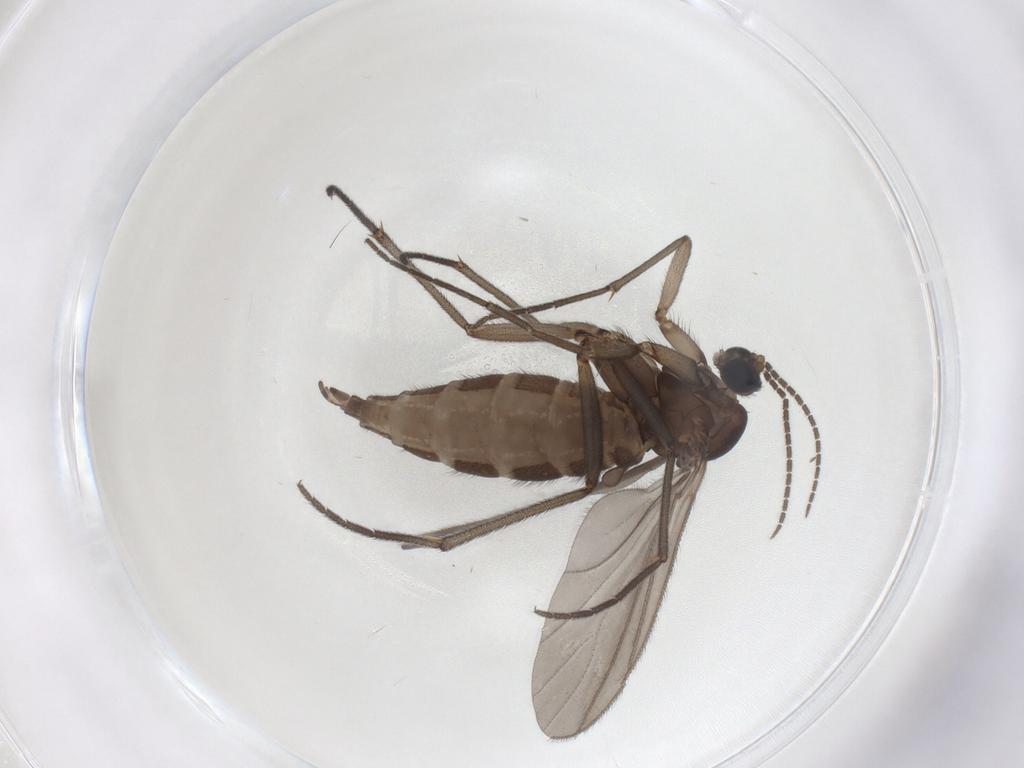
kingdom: Animalia
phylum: Arthropoda
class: Insecta
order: Diptera
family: Sciaridae
